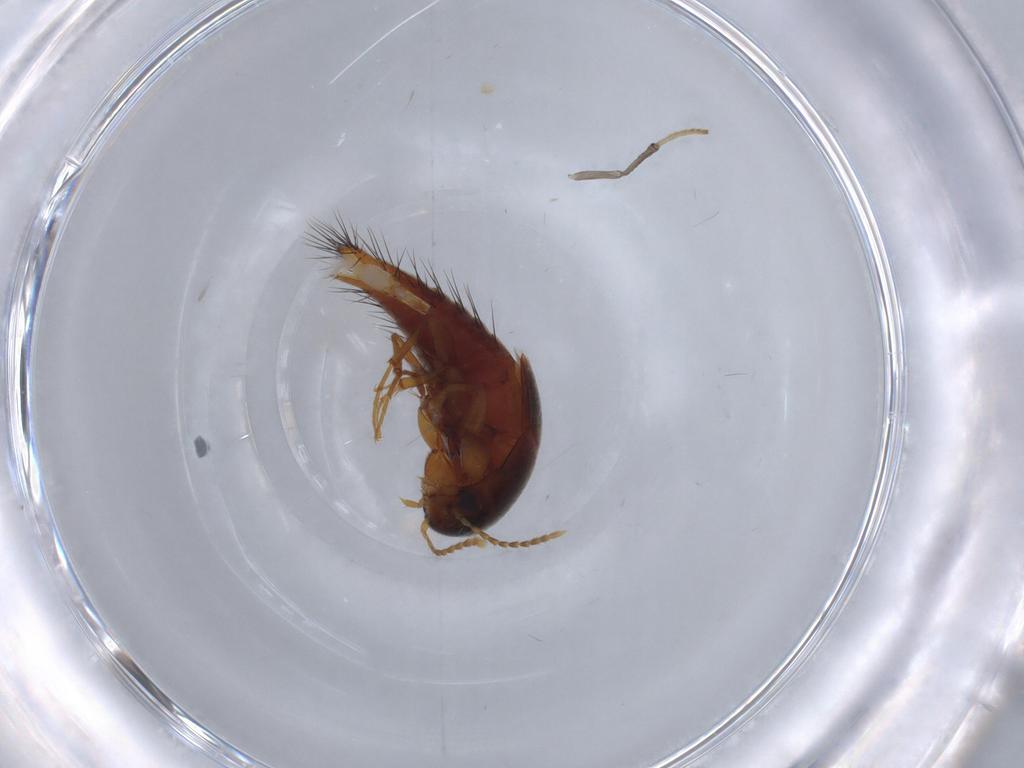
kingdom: Animalia
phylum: Arthropoda
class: Insecta
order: Coleoptera
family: Staphylinidae
